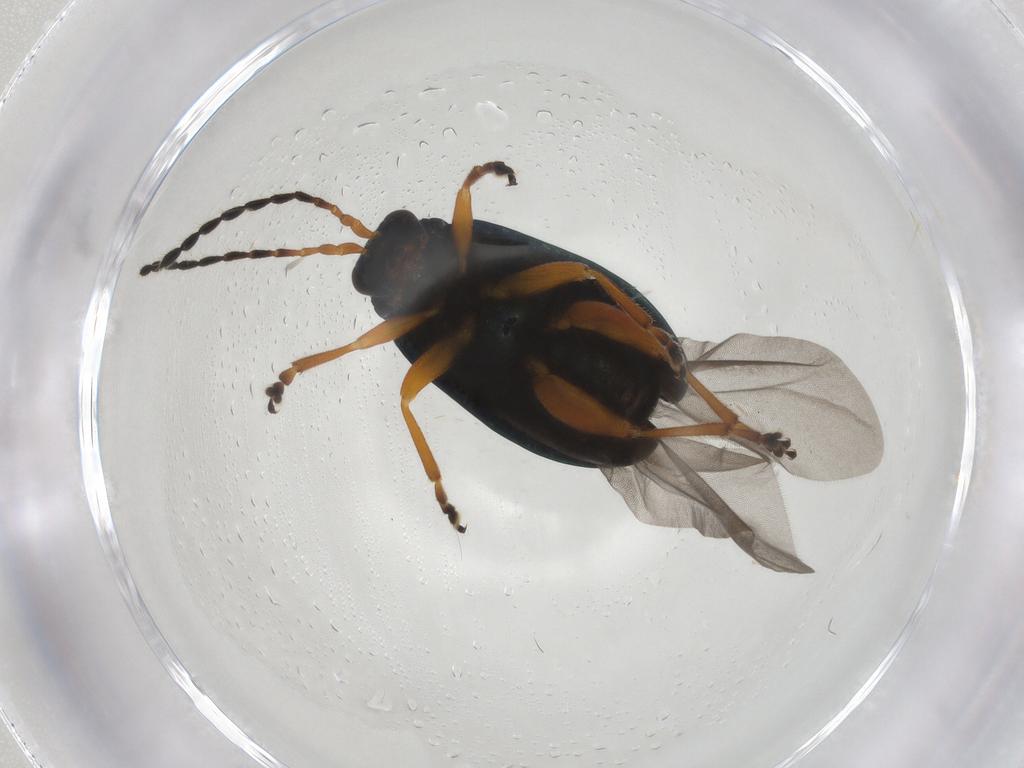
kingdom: Animalia
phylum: Arthropoda
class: Insecta
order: Coleoptera
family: Chrysomelidae
